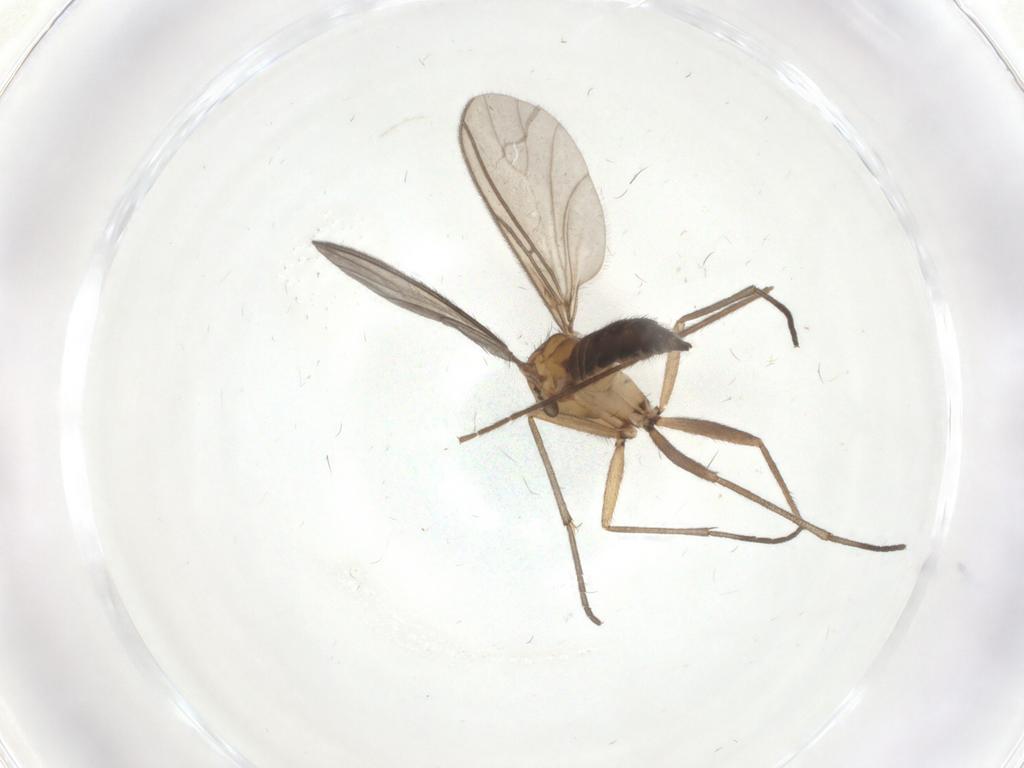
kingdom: Animalia
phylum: Arthropoda
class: Insecta
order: Diptera
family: Sciaridae
